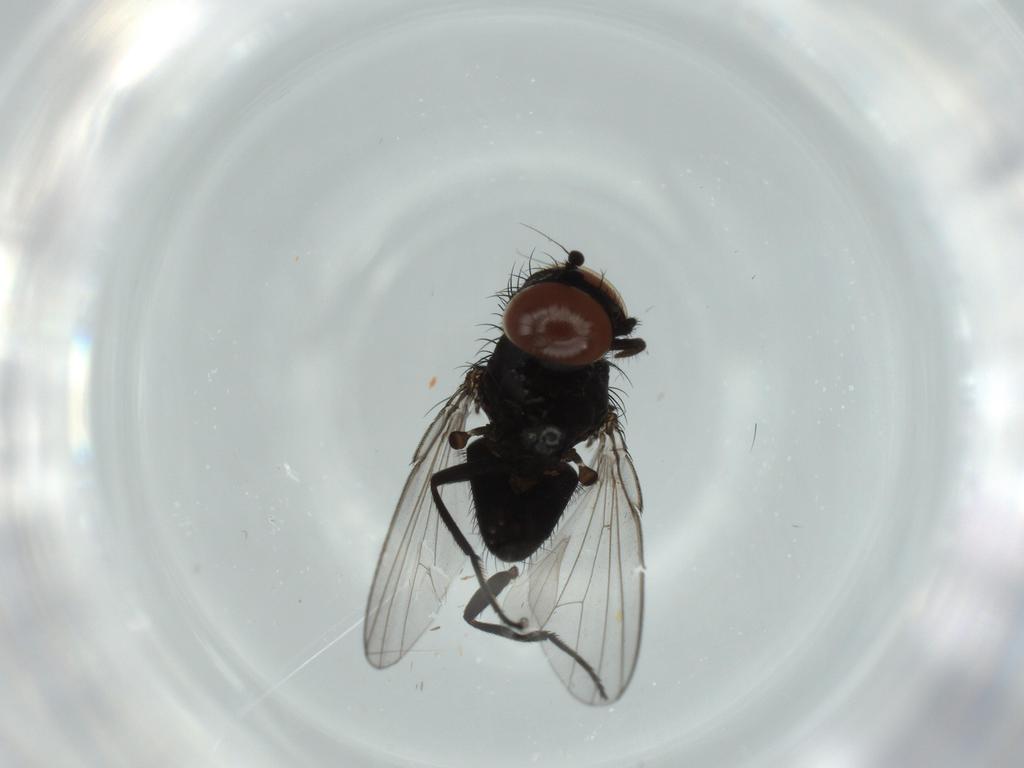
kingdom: Animalia
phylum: Arthropoda
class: Insecta
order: Diptera
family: Milichiidae
